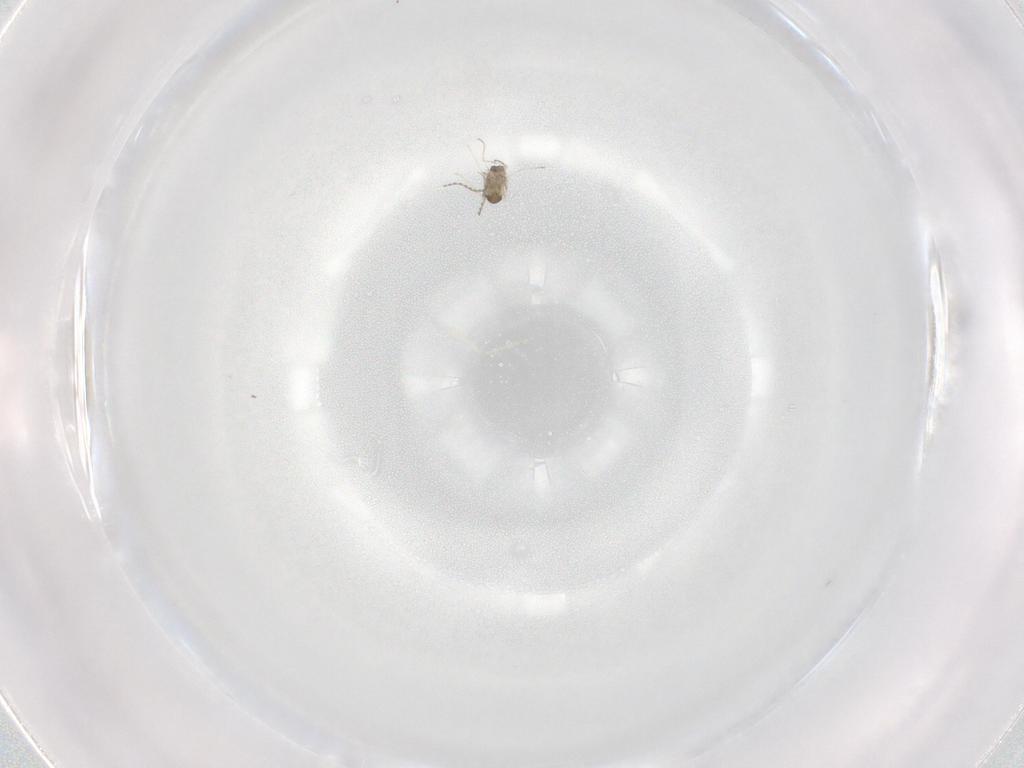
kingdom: Animalia
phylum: Arthropoda
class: Insecta
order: Diptera
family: Cecidomyiidae
